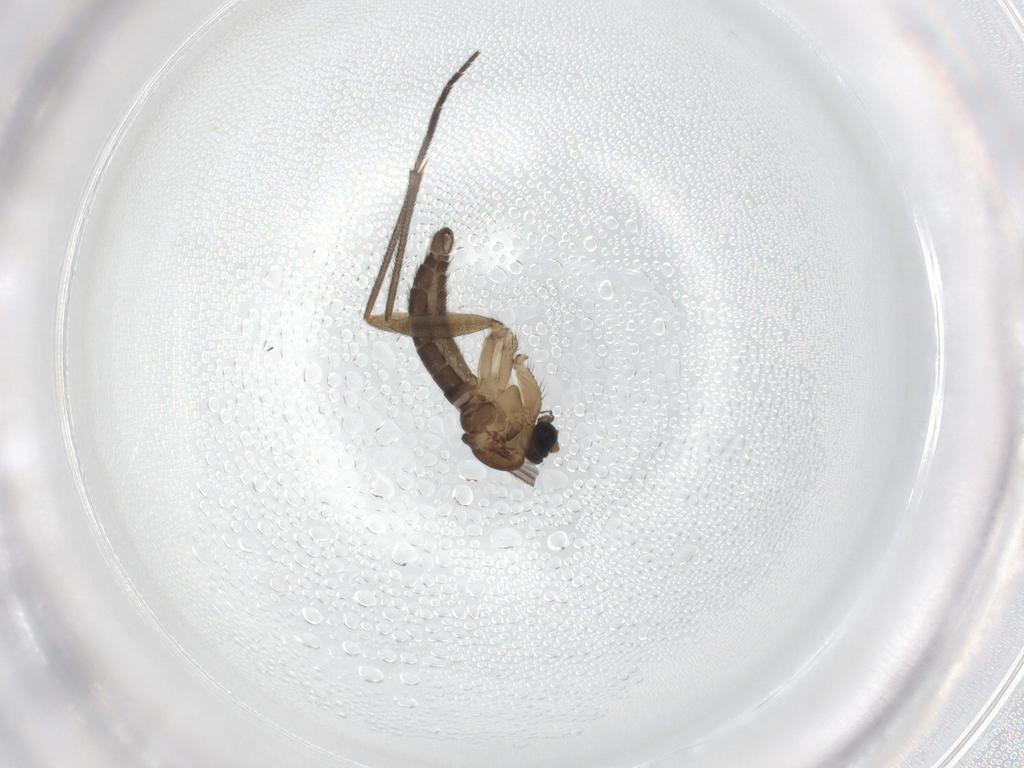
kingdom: Animalia
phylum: Arthropoda
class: Insecta
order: Diptera
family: Sciaridae
